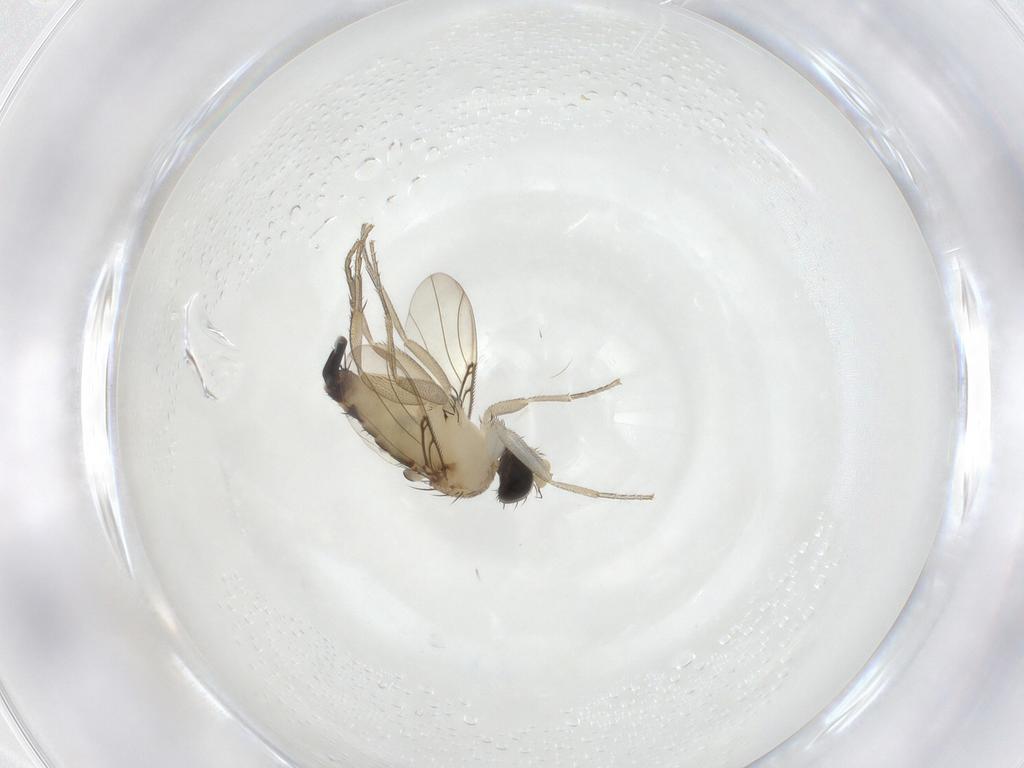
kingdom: Animalia
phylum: Arthropoda
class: Insecta
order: Diptera
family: Phoridae
